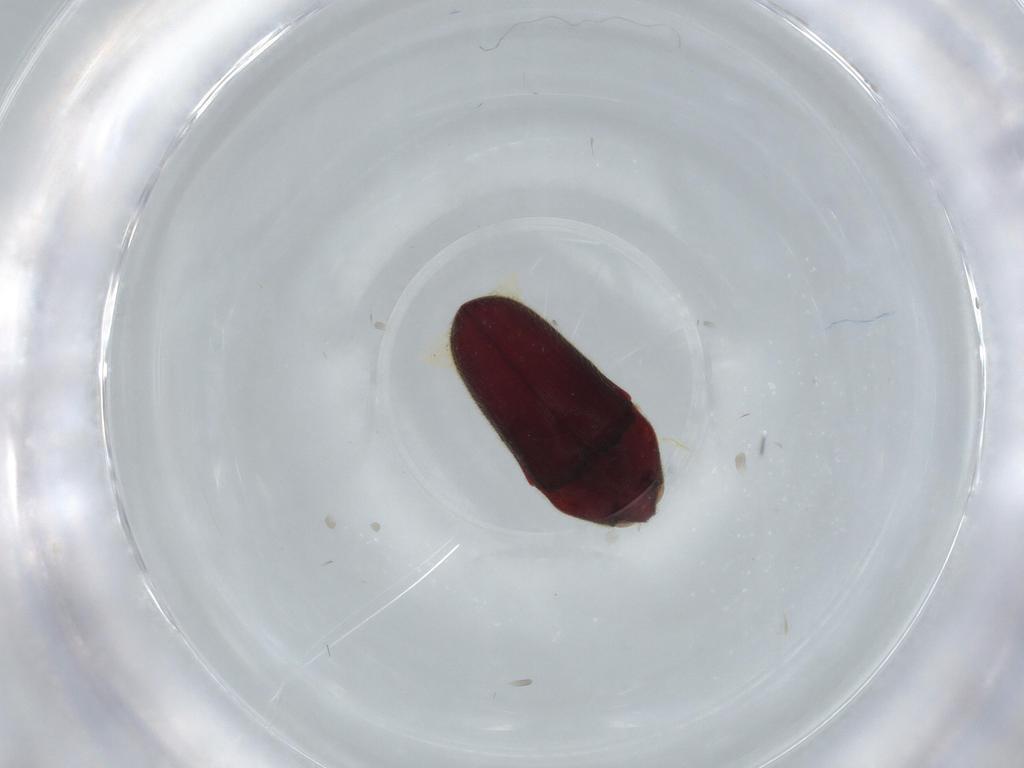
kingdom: Animalia
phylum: Arthropoda
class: Insecta
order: Coleoptera
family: Throscidae
